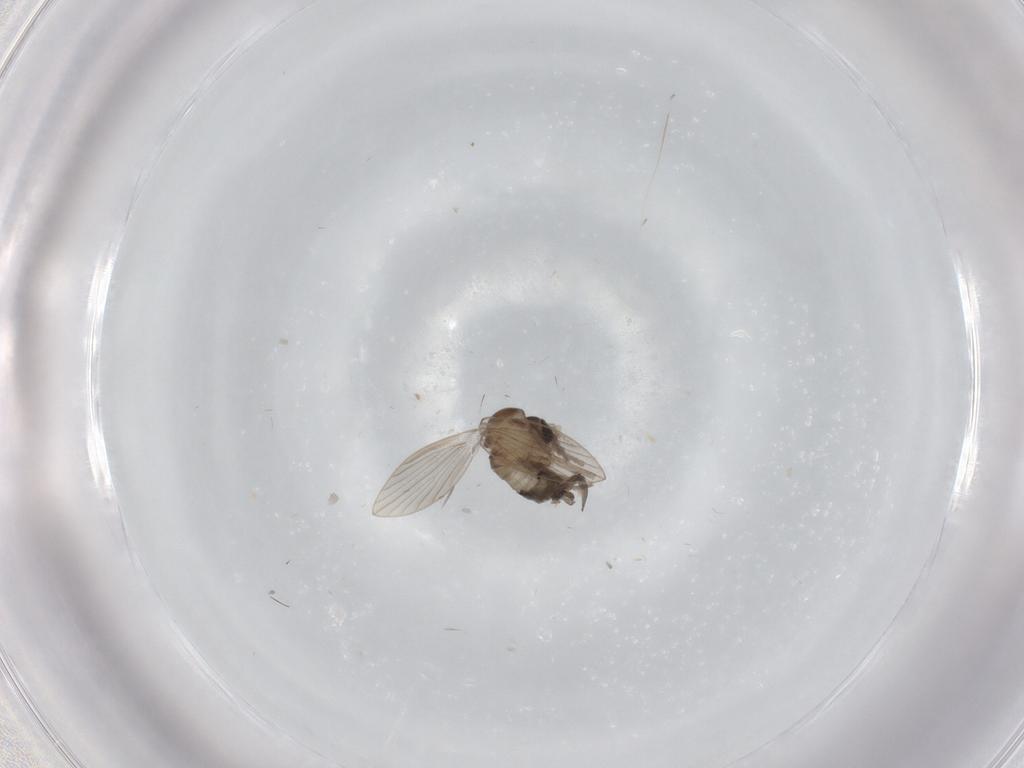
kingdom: Animalia
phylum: Arthropoda
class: Insecta
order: Diptera
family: Psychodidae
